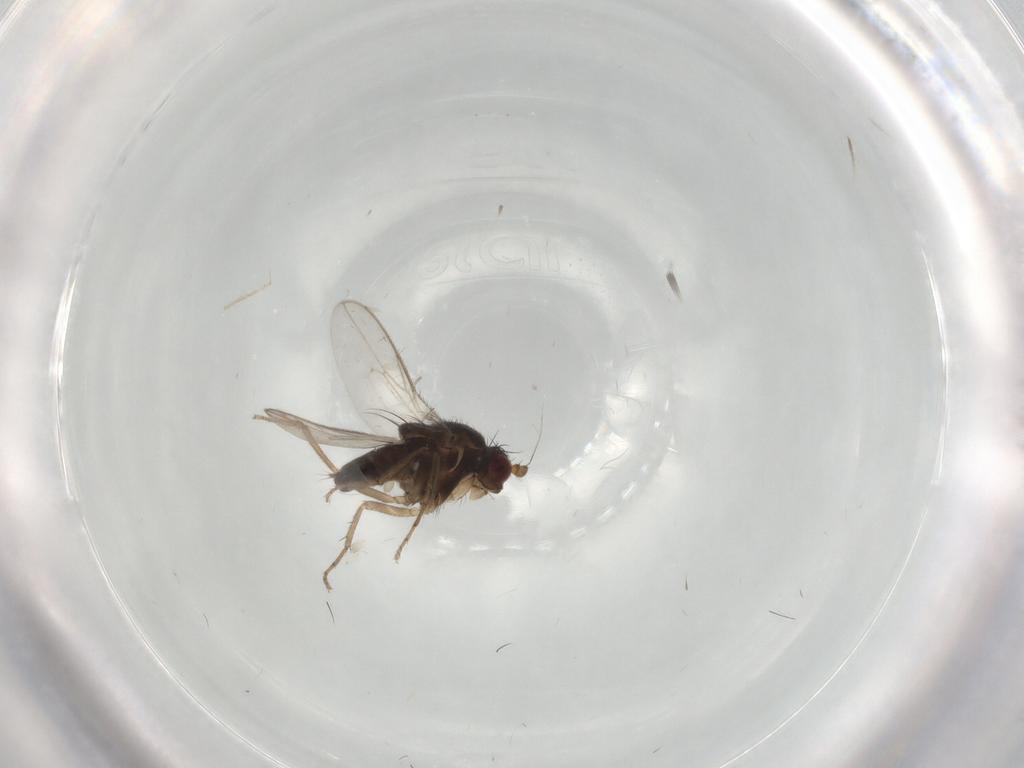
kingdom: Animalia
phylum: Arthropoda
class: Insecta
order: Diptera
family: Sphaeroceridae
